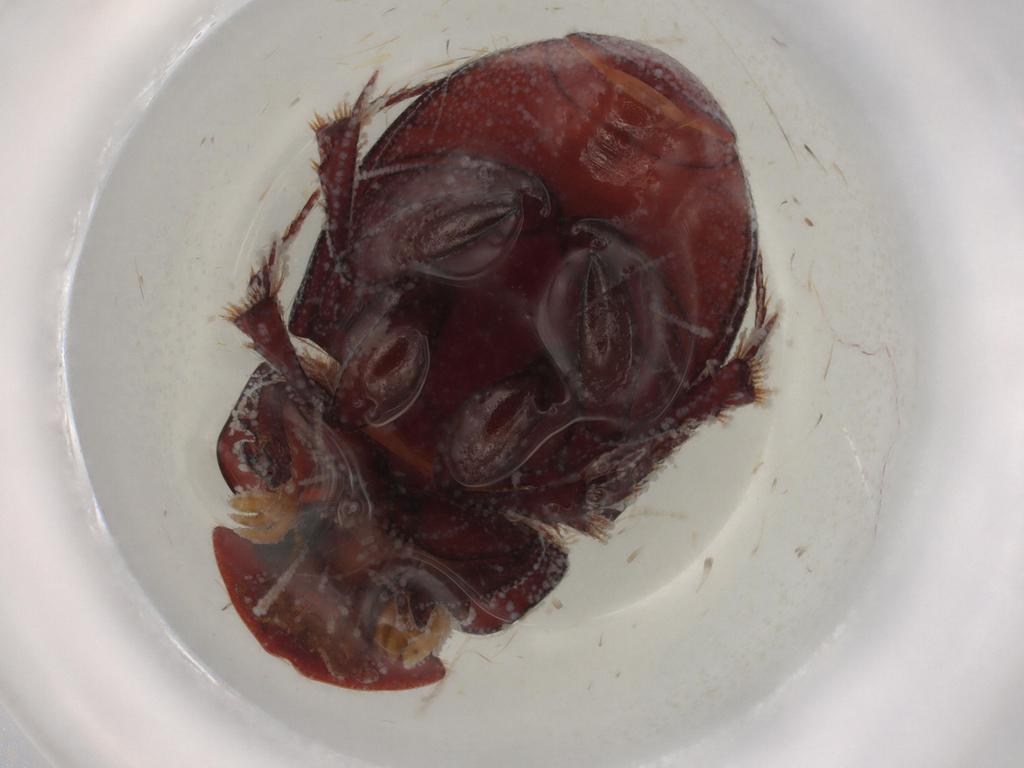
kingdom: Animalia
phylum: Arthropoda
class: Insecta
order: Coleoptera
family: Scarabaeidae
